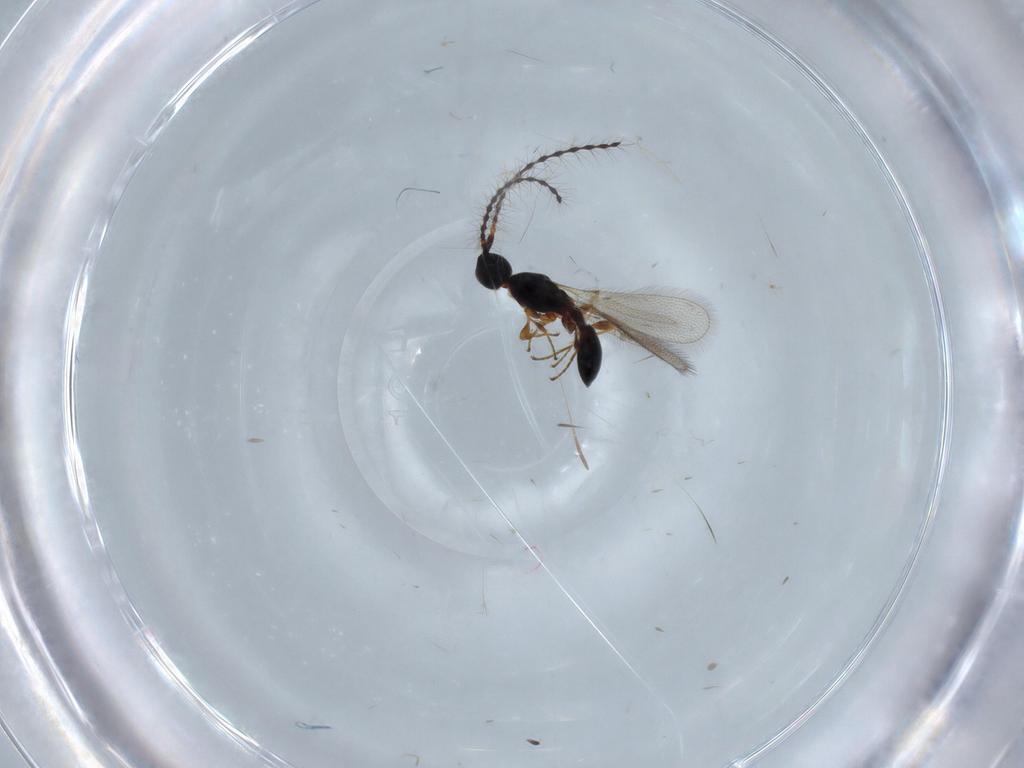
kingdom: Animalia
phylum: Arthropoda
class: Insecta
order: Hymenoptera
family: Diapriidae
